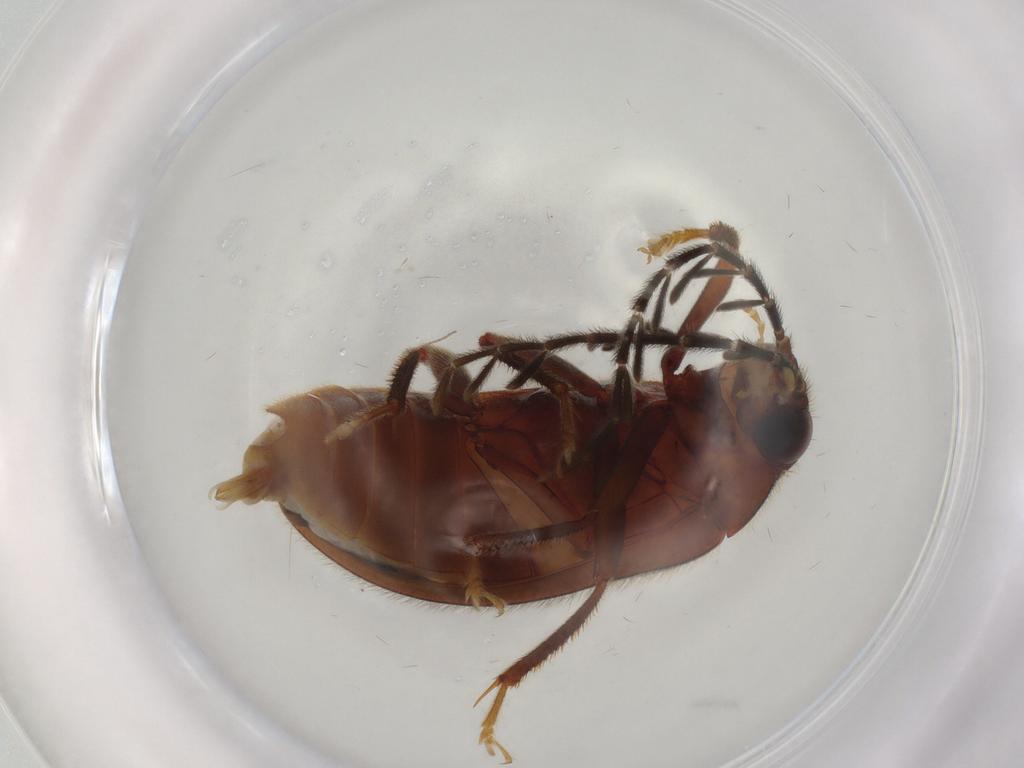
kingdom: Animalia
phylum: Arthropoda
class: Insecta
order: Coleoptera
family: Ptilodactylidae
